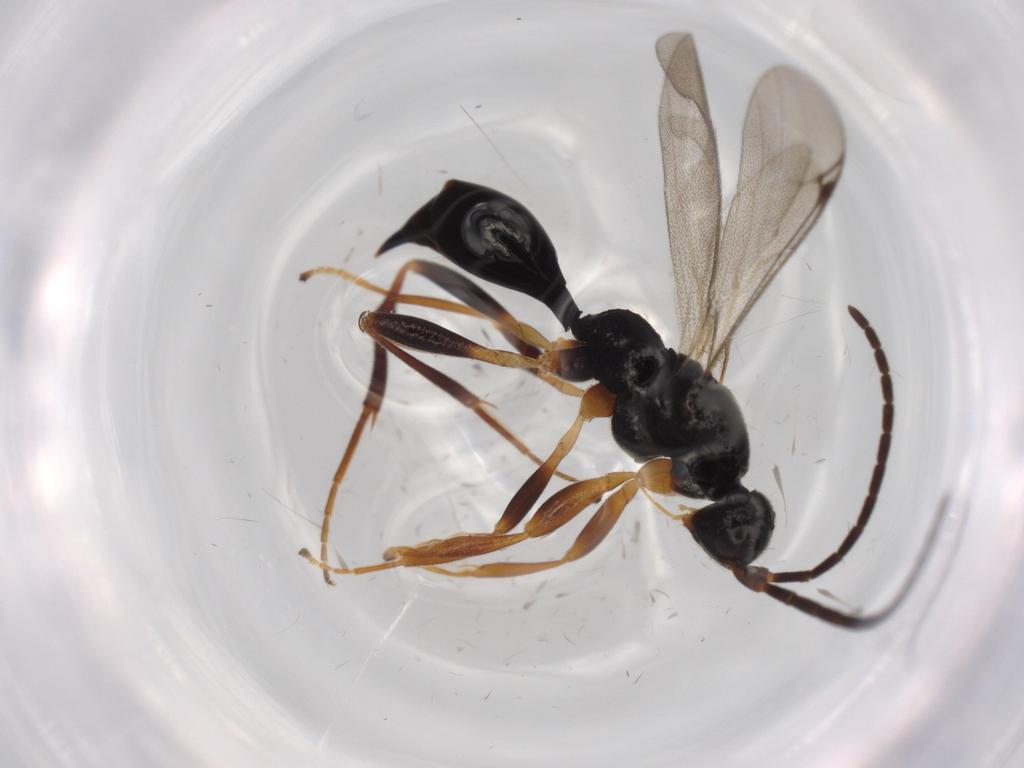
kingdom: Animalia
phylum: Arthropoda
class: Insecta
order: Hymenoptera
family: Proctotrupidae
